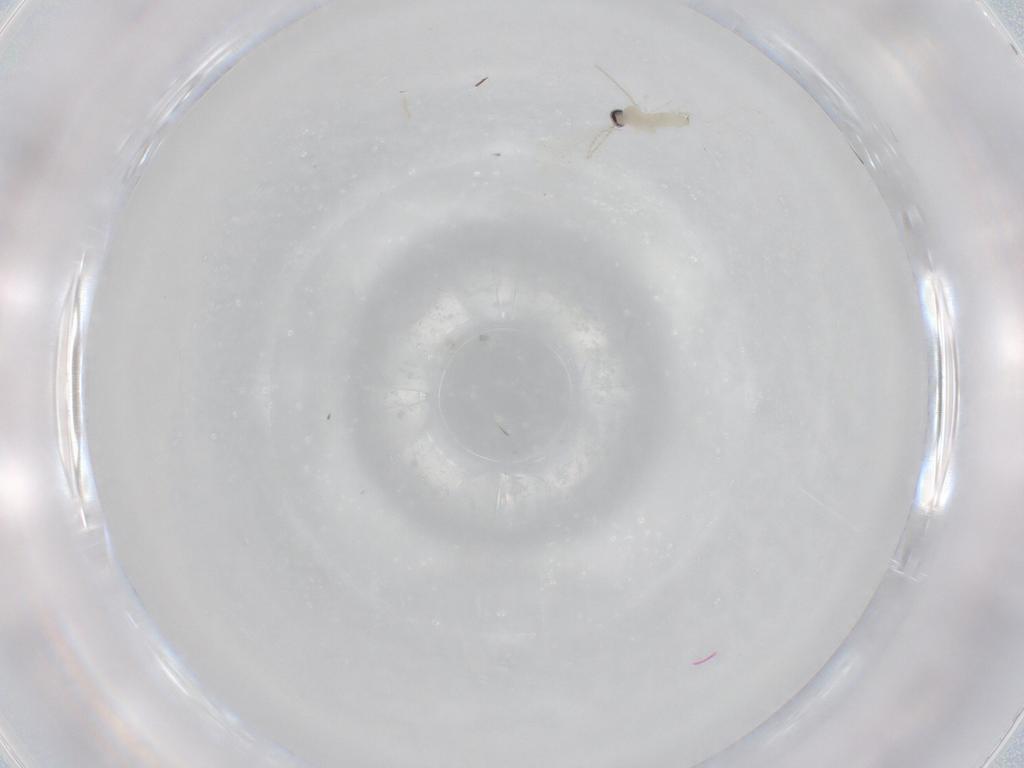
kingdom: Animalia
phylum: Arthropoda
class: Insecta
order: Diptera
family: Cecidomyiidae
